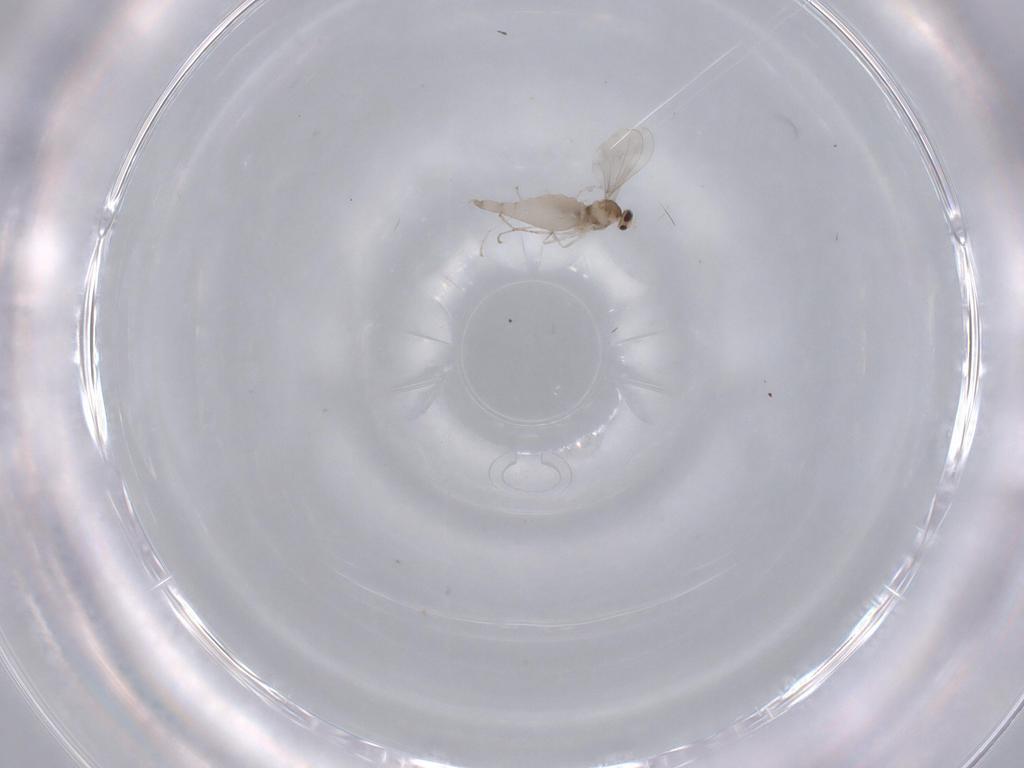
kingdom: Animalia
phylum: Arthropoda
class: Insecta
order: Diptera
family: Cecidomyiidae
